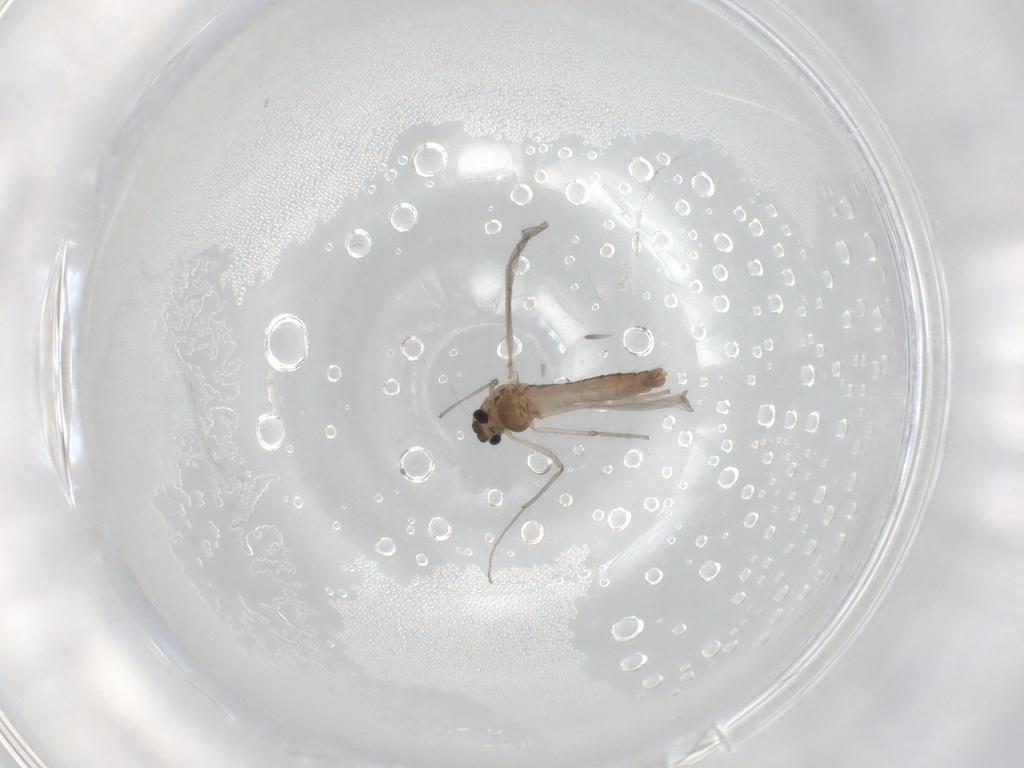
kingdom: Animalia
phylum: Arthropoda
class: Insecta
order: Diptera
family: Chironomidae
